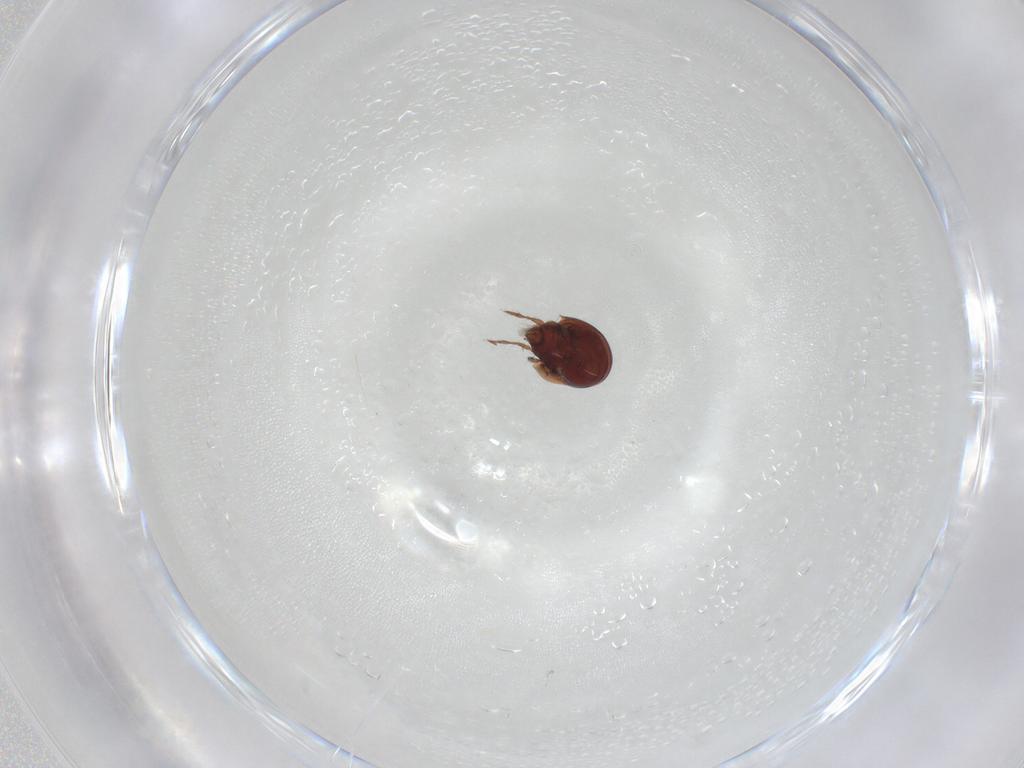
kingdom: Animalia
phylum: Arthropoda
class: Arachnida
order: Sarcoptiformes
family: Ceratozetidae
